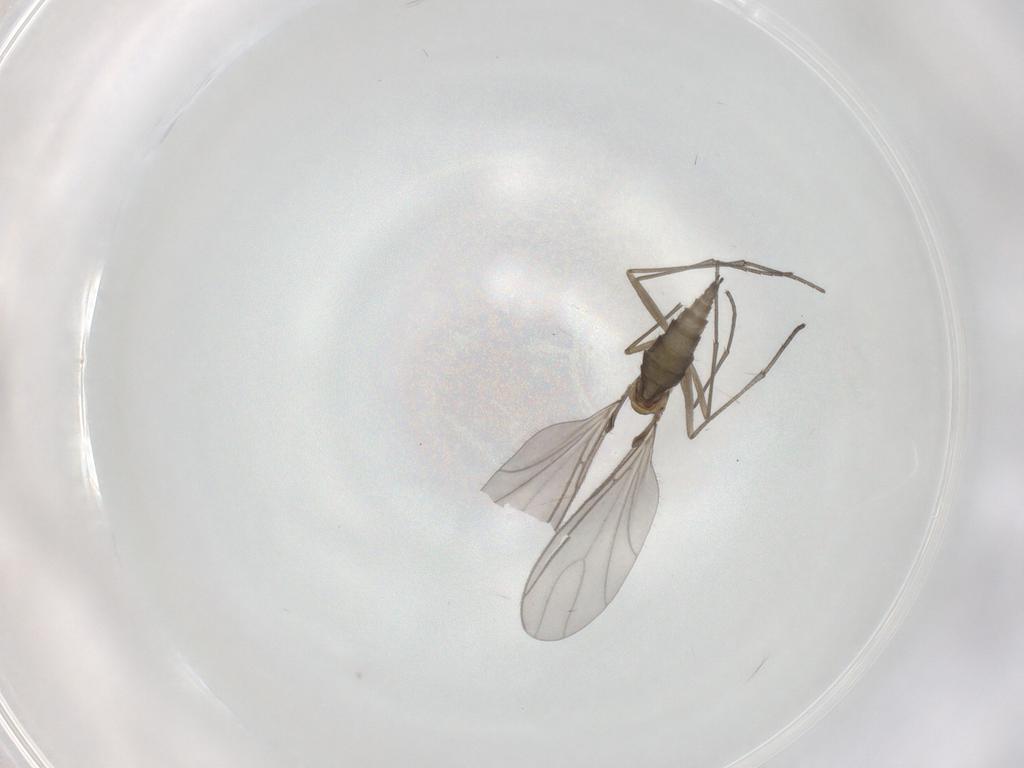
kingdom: Animalia
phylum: Arthropoda
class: Insecta
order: Diptera
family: Sciaridae
